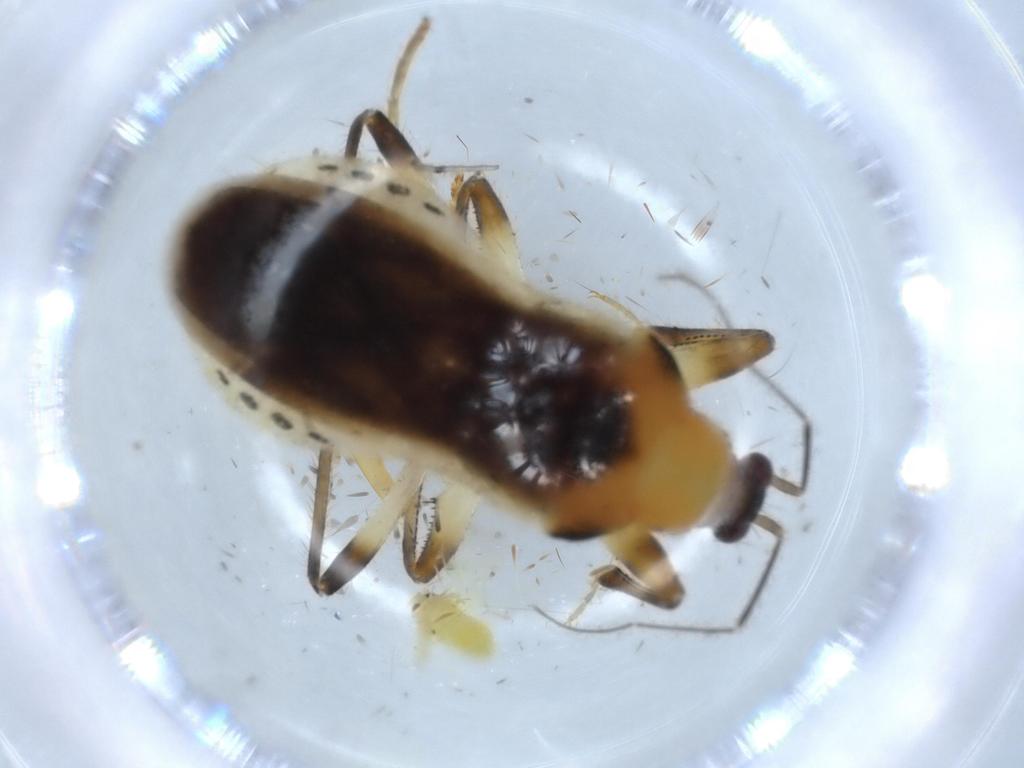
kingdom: Animalia
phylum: Arthropoda
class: Insecta
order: Hemiptera
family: Nabidae
